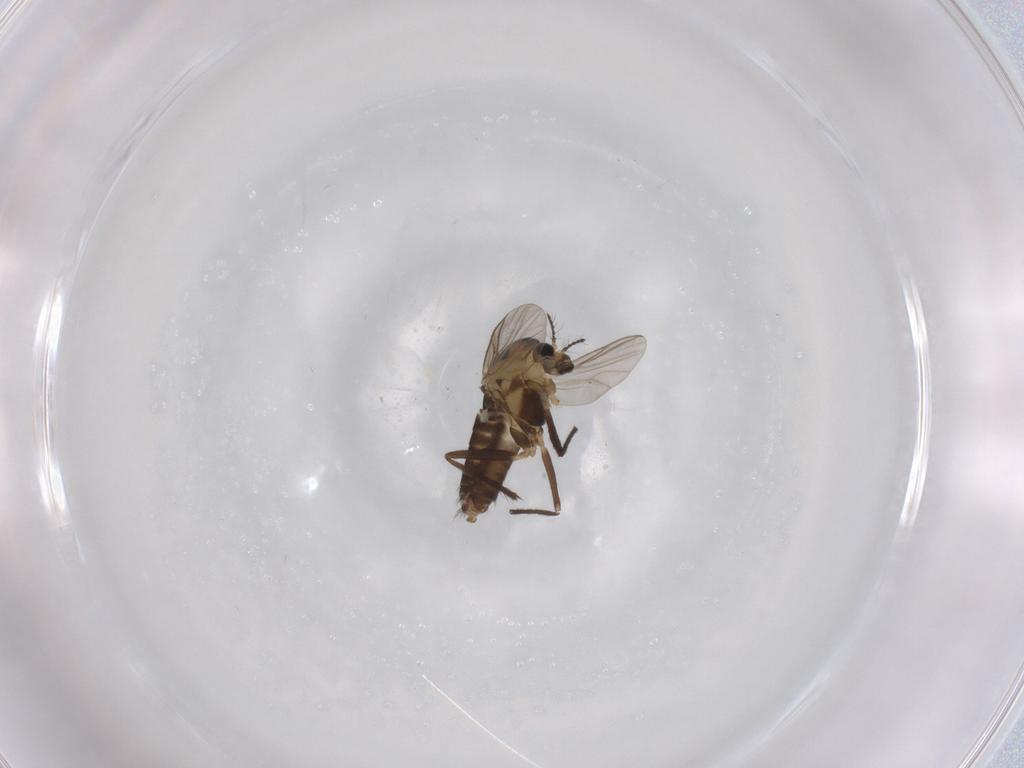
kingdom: Animalia
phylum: Arthropoda
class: Insecta
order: Diptera
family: Chironomidae
